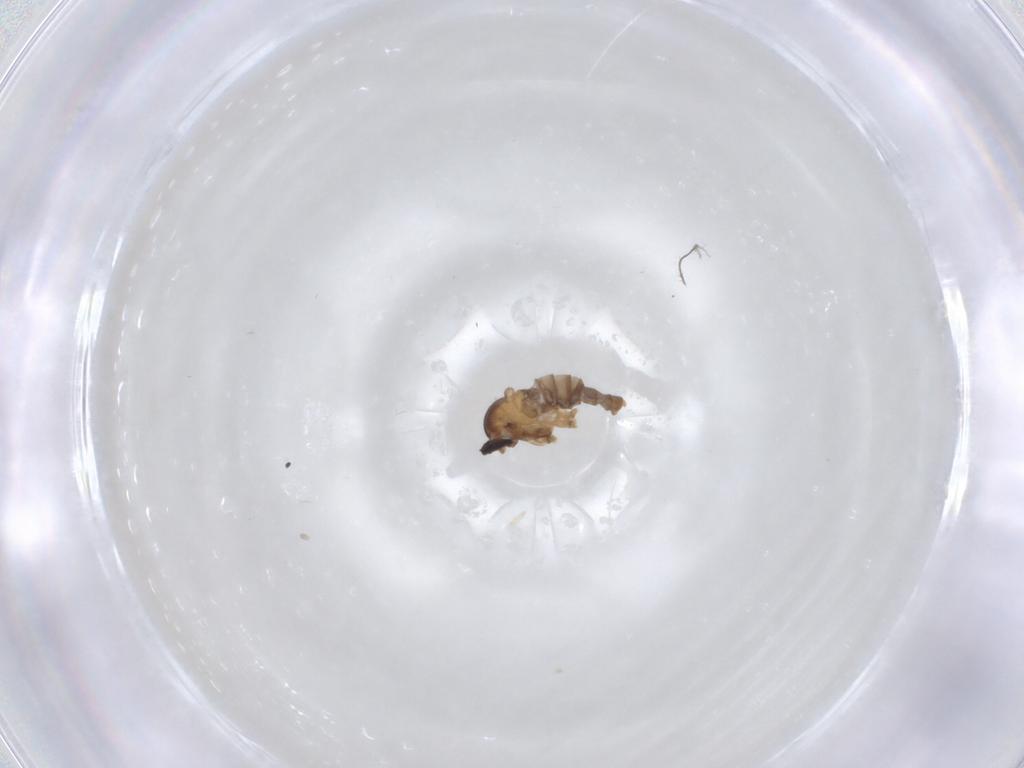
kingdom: Animalia
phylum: Arthropoda
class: Insecta
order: Diptera
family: Cecidomyiidae
